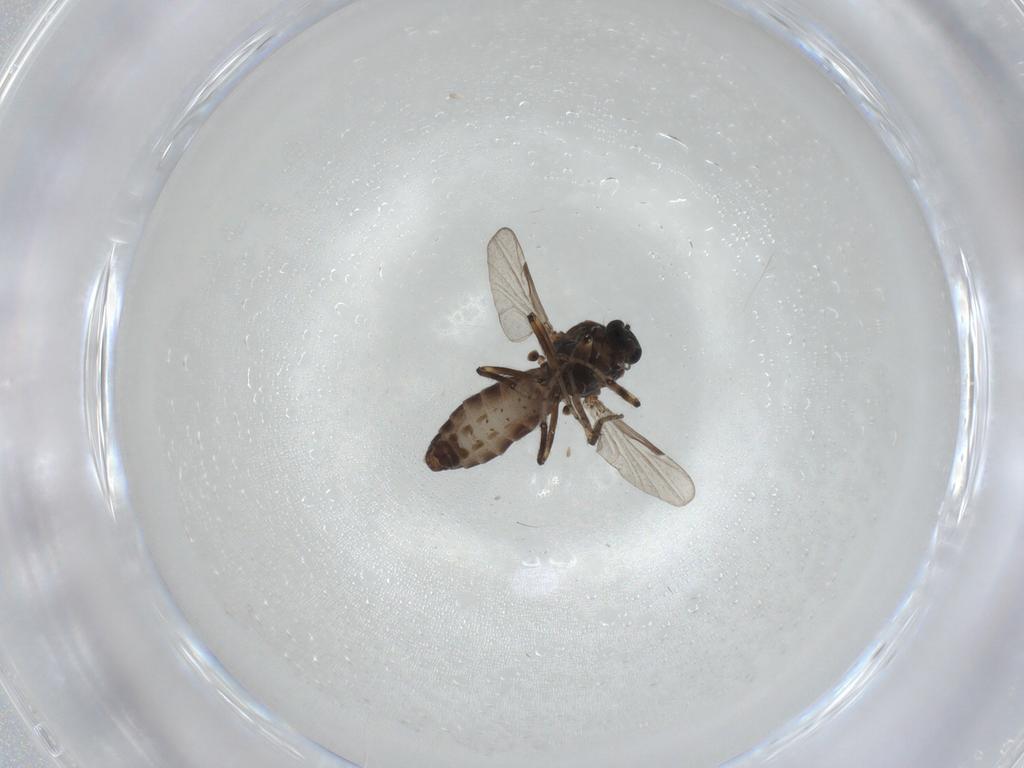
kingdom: Animalia
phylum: Arthropoda
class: Insecta
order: Diptera
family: Ceratopogonidae
